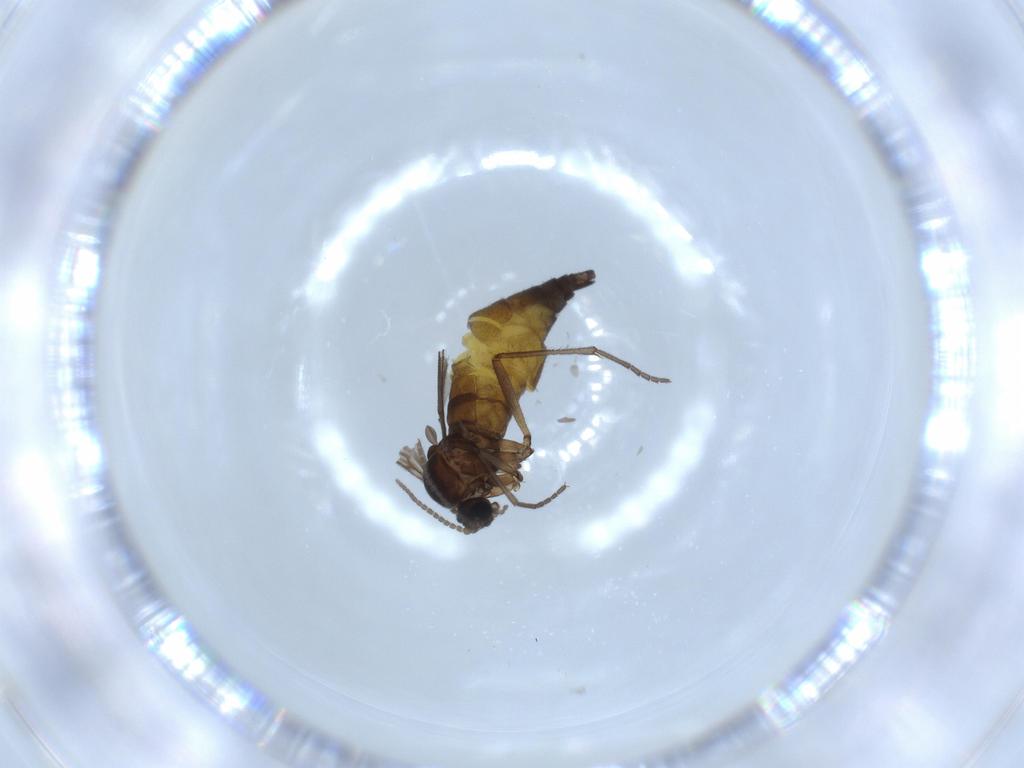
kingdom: Animalia
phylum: Arthropoda
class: Insecta
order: Diptera
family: Sciaridae
